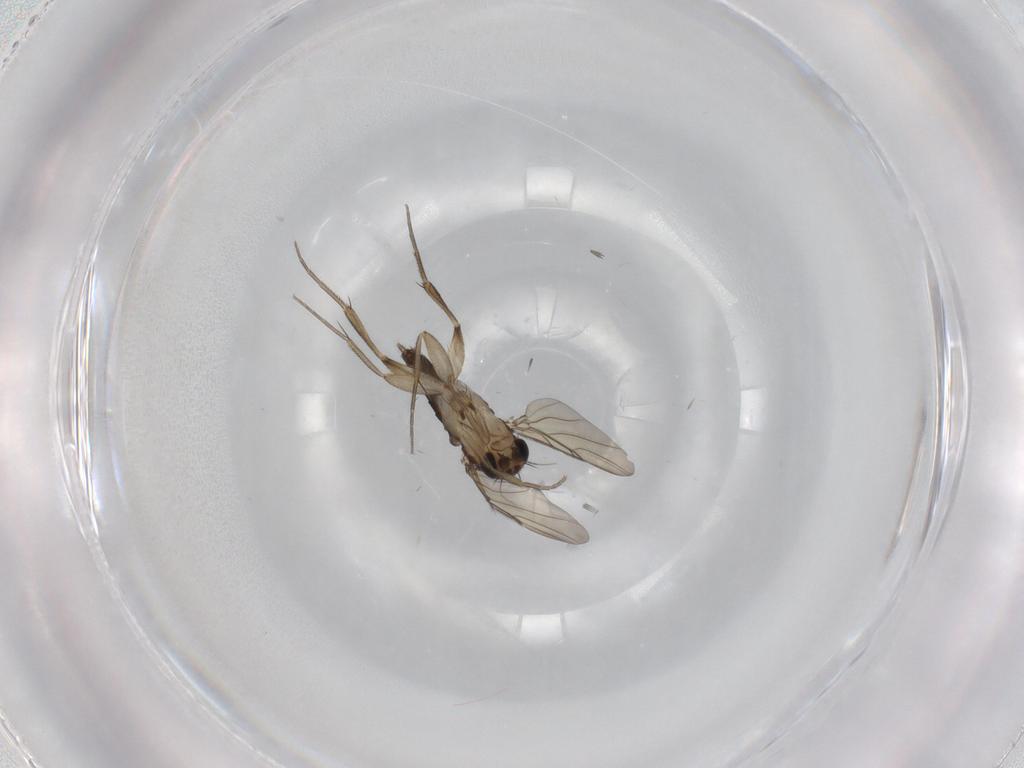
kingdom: Animalia
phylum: Arthropoda
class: Insecta
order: Diptera
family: Phoridae
